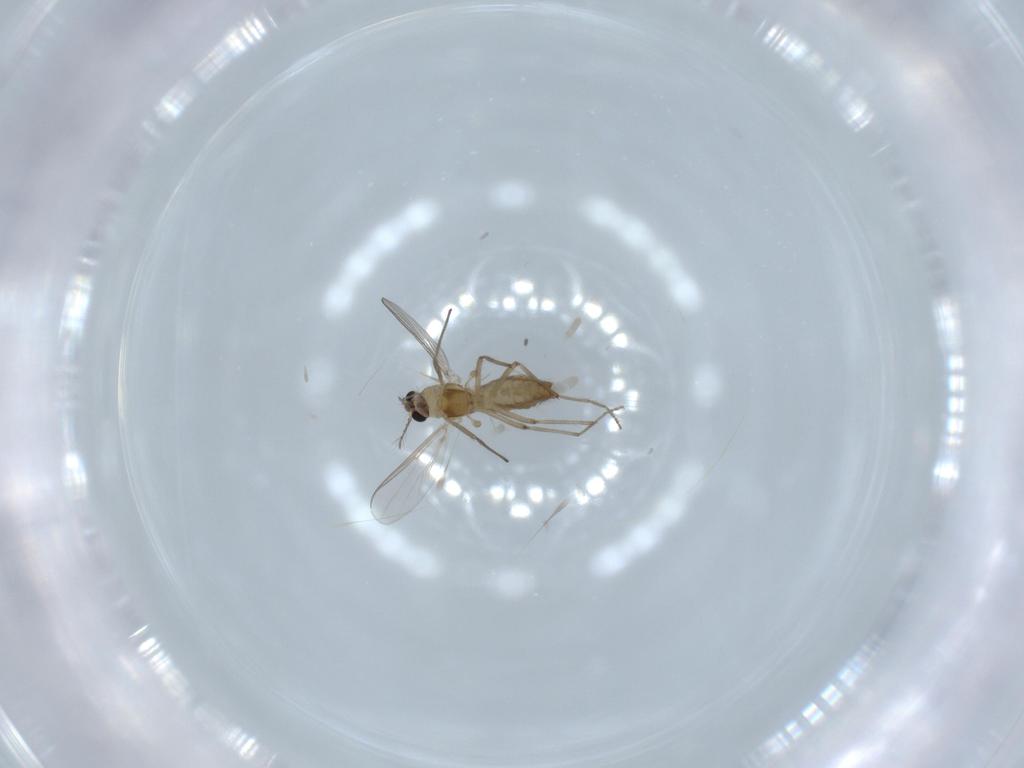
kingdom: Animalia
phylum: Arthropoda
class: Insecta
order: Diptera
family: Chironomidae
